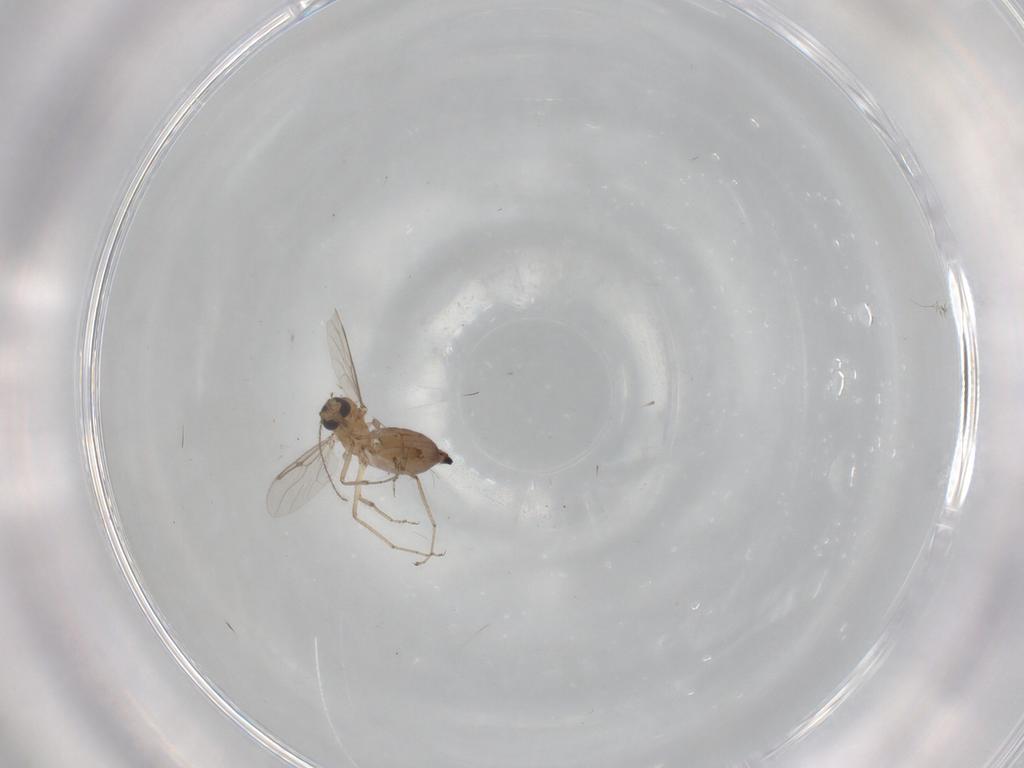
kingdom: Animalia
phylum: Arthropoda
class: Insecta
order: Diptera
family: Ceratopogonidae
